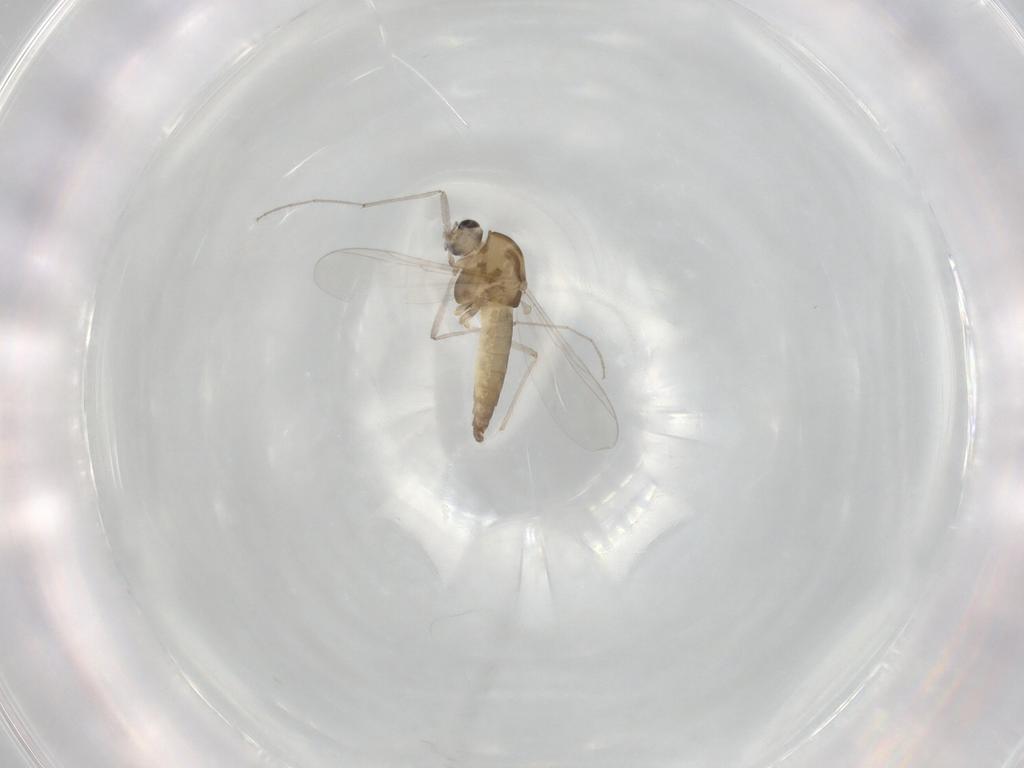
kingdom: Animalia
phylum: Arthropoda
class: Insecta
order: Diptera
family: Chironomidae
